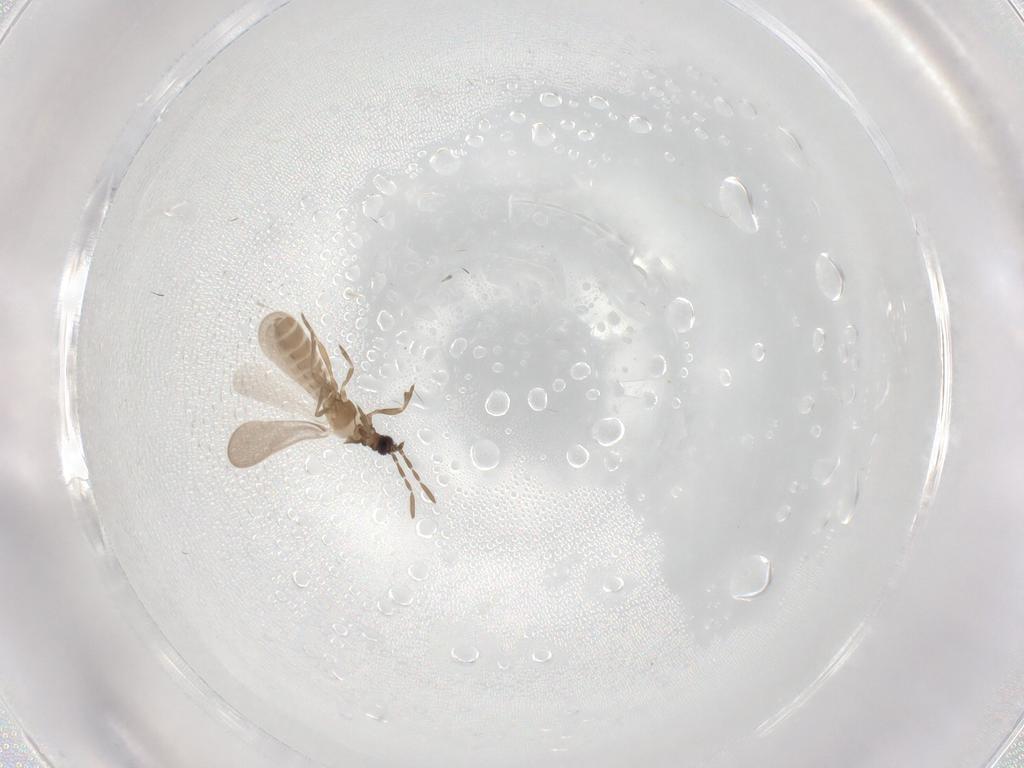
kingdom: Animalia
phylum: Arthropoda
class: Insecta
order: Hemiptera
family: Enicocephalidae
